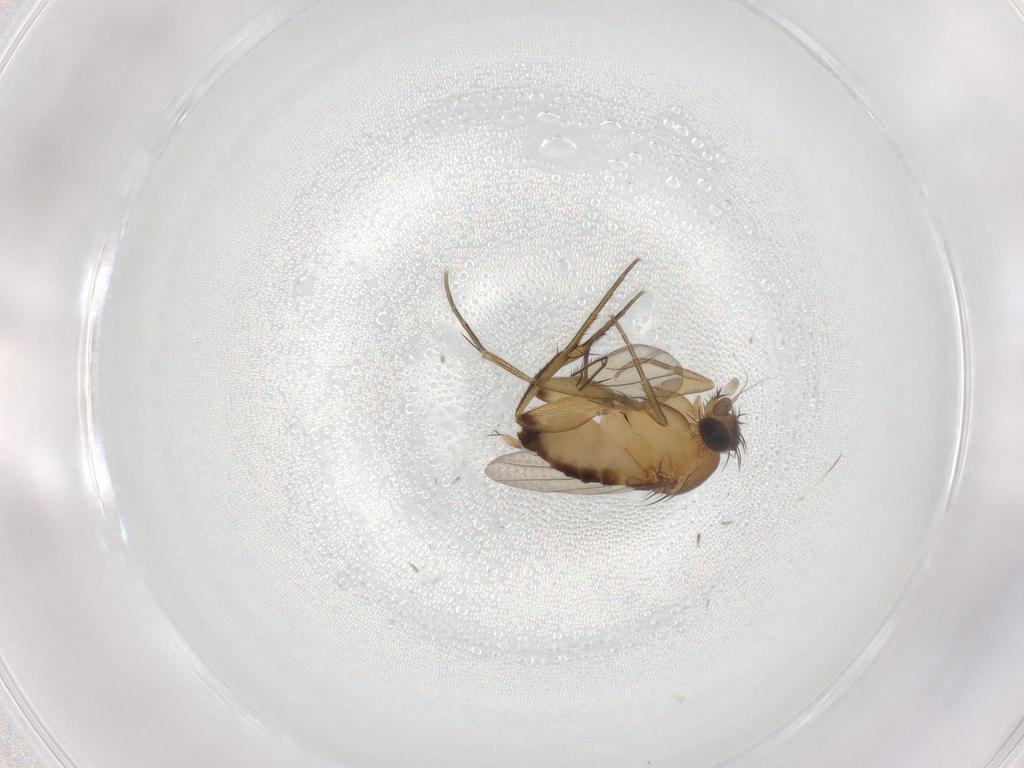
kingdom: Animalia
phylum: Arthropoda
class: Insecta
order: Diptera
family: Phoridae
